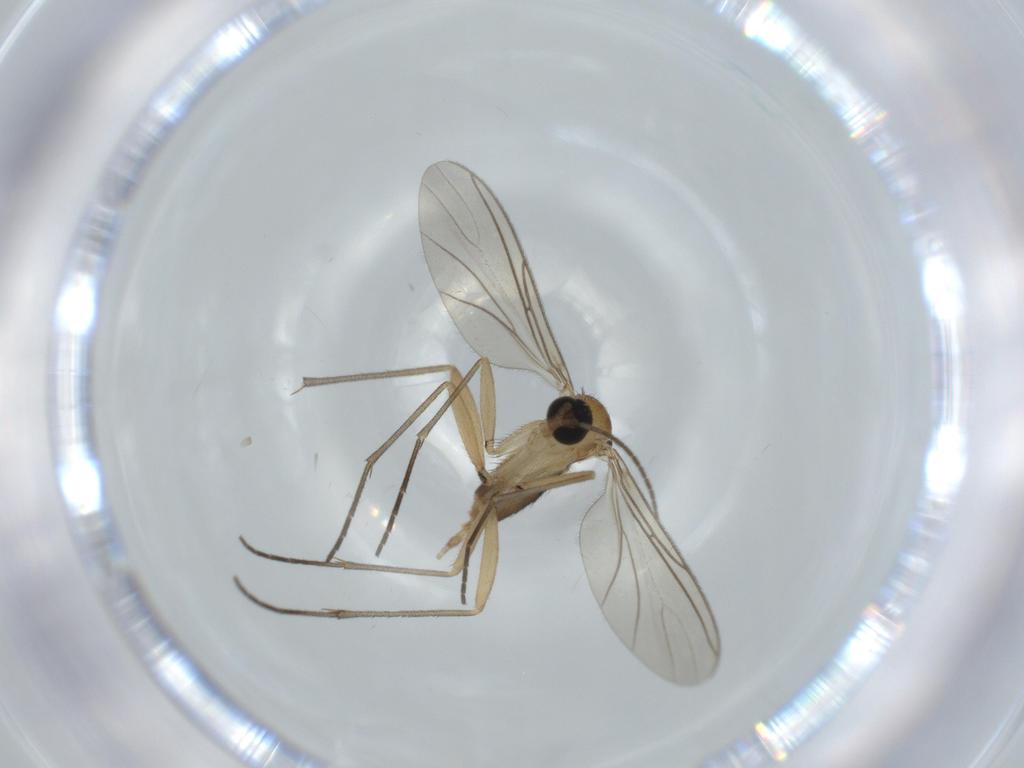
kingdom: Animalia
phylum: Arthropoda
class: Insecta
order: Diptera
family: Sciaridae
